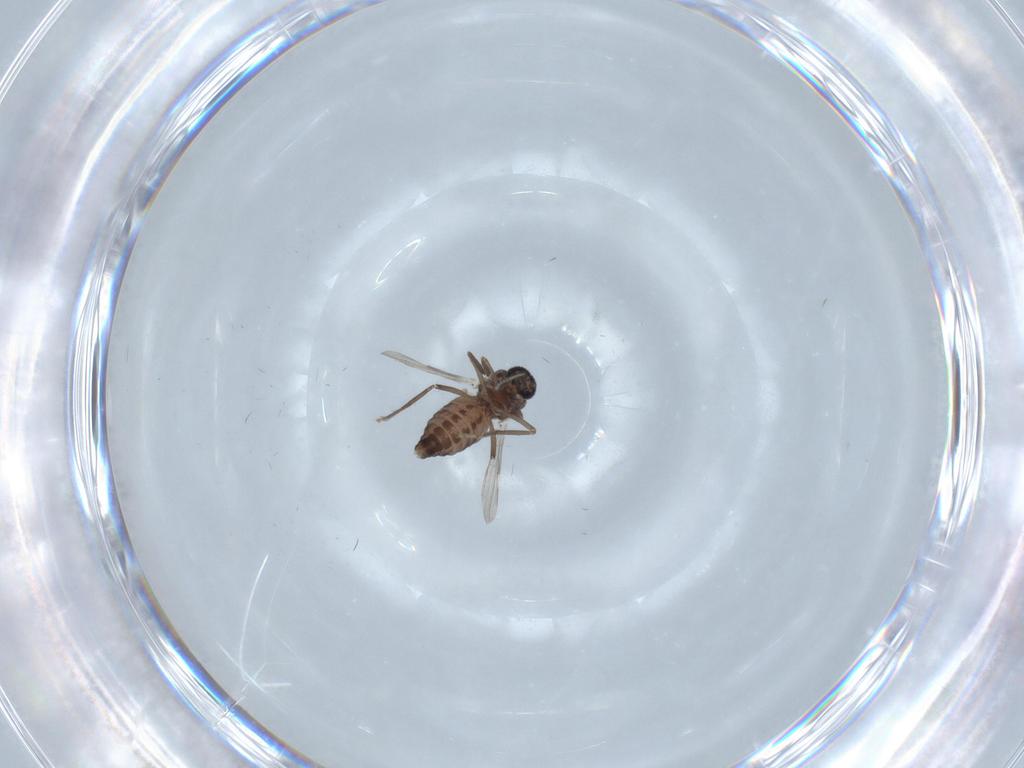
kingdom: Animalia
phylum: Arthropoda
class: Insecta
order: Diptera
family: Ceratopogonidae
